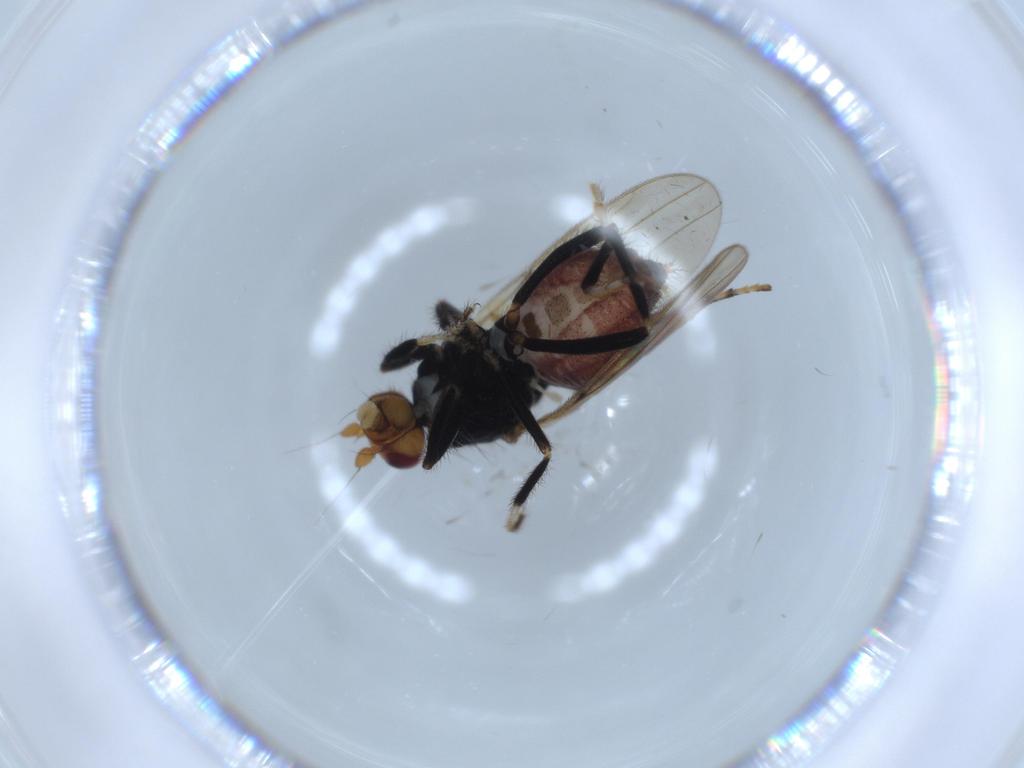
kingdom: Animalia
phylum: Arthropoda
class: Insecta
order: Diptera
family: Sphaeroceridae
